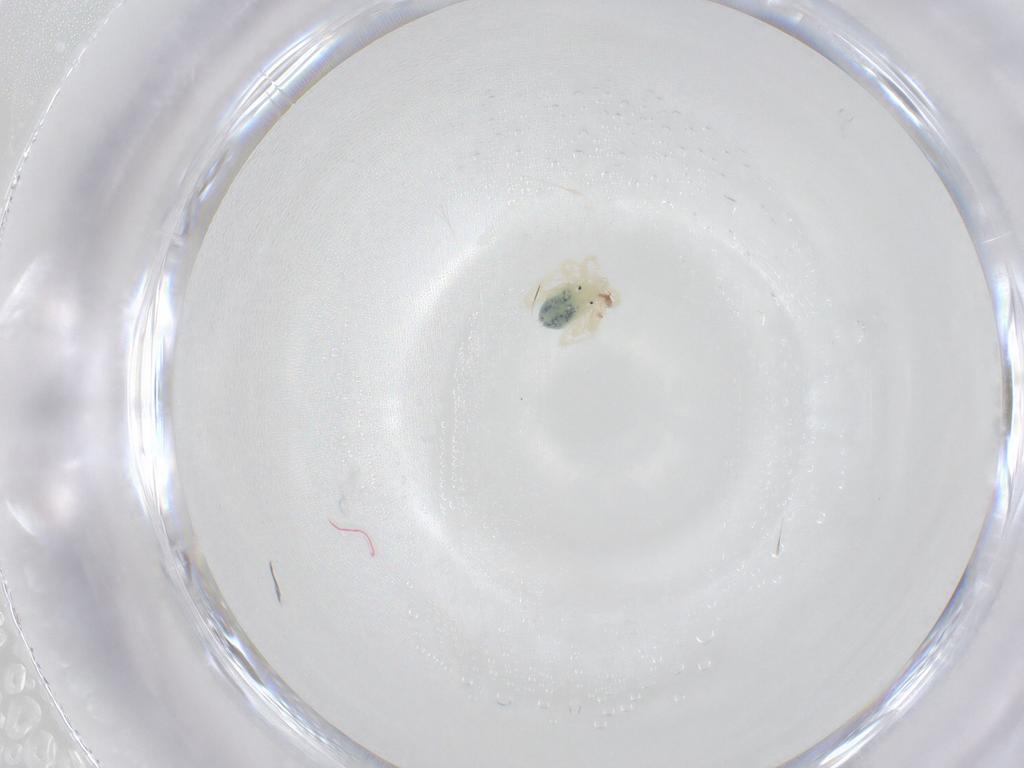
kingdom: Animalia
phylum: Arthropoda
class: Arachnida
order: Trombidiformes
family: Anystidae
